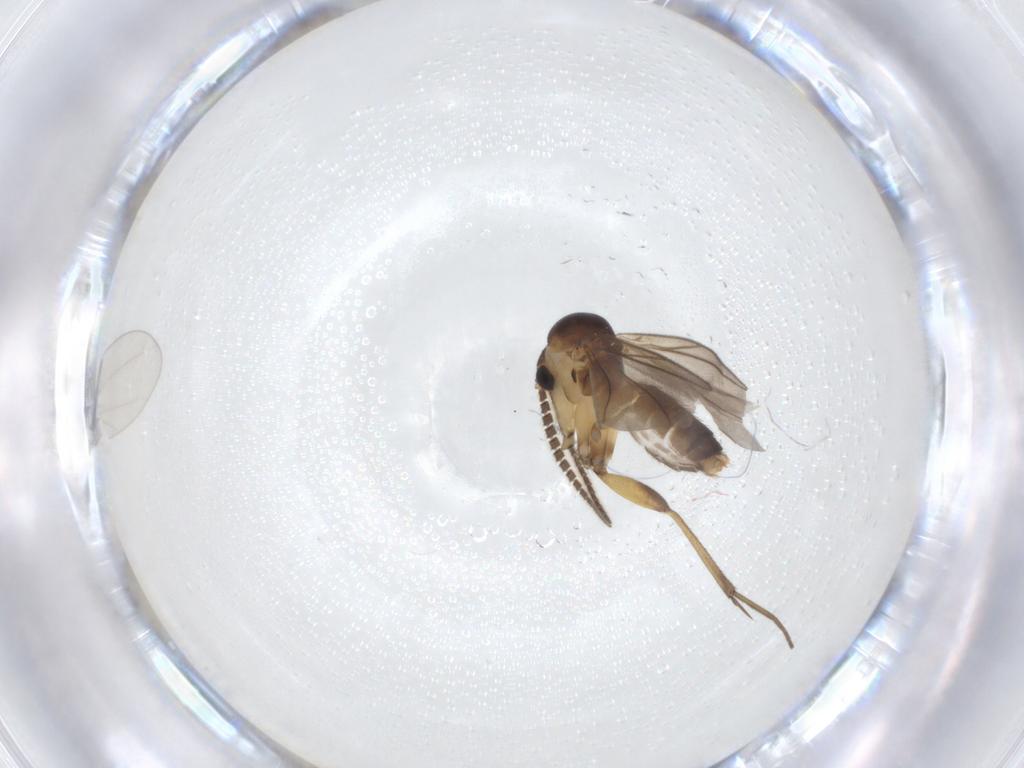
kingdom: Animalia
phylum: Arthropoda
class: Insecta
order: Diptera
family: Mycetophilidae
